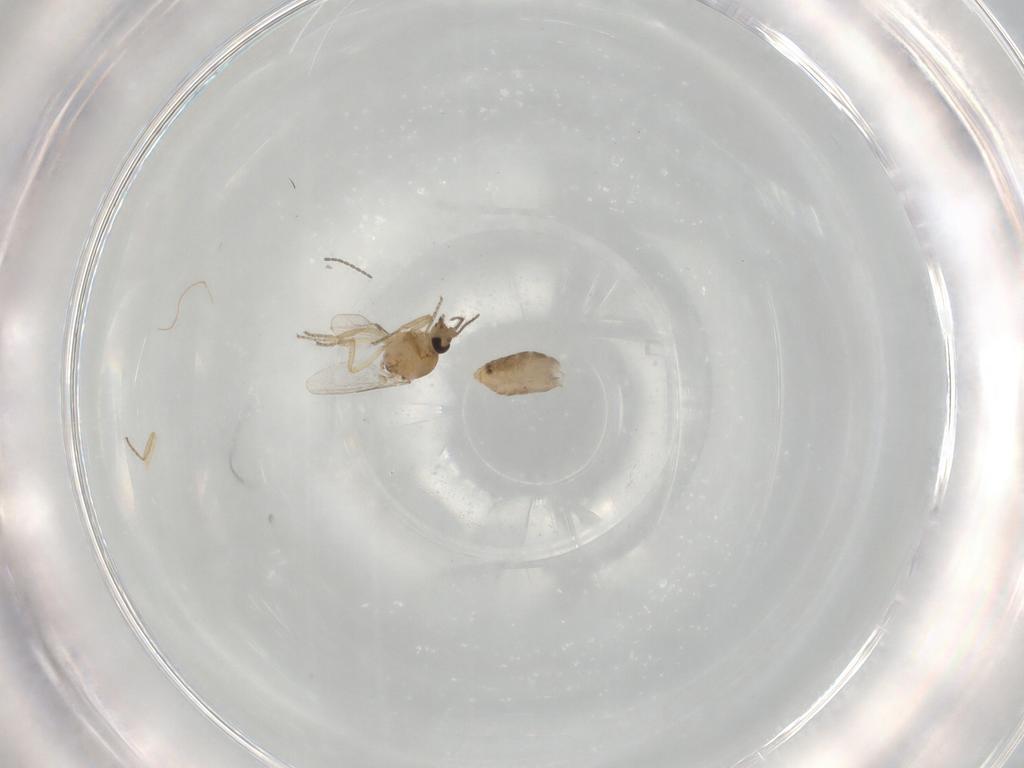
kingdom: Animalia
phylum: Arthropoda
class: Insecta
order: Diptera
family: Ceratopogonidae
